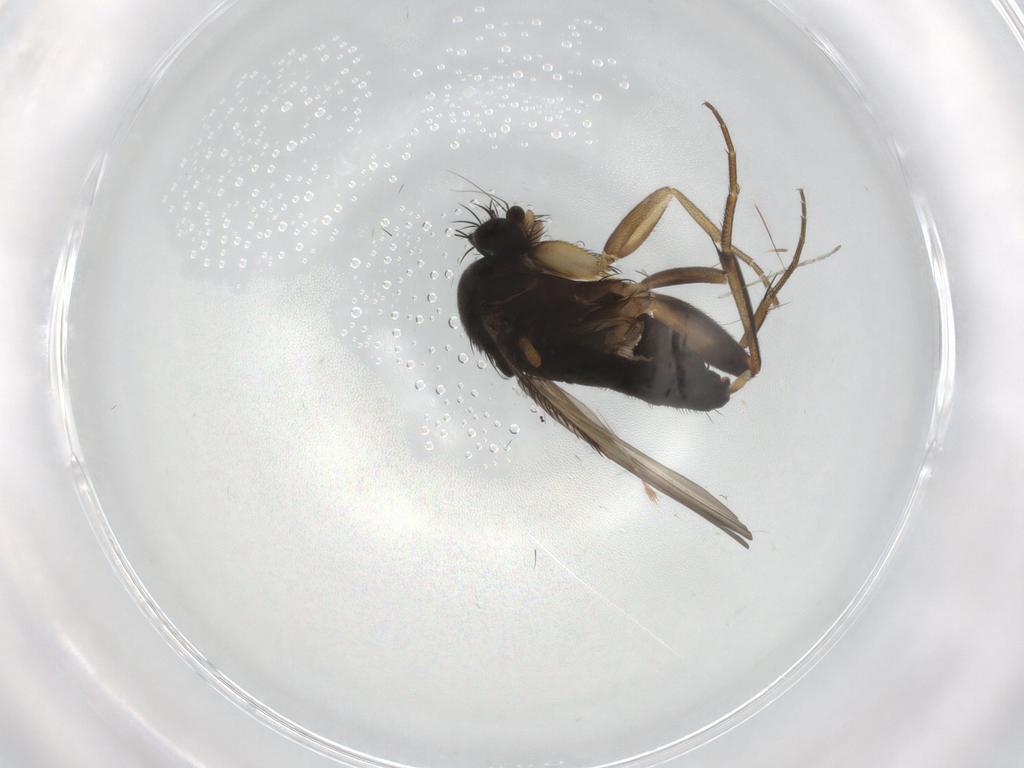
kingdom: Animalia
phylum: Arthropoda
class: Insecta
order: Diptera
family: Phoridae
